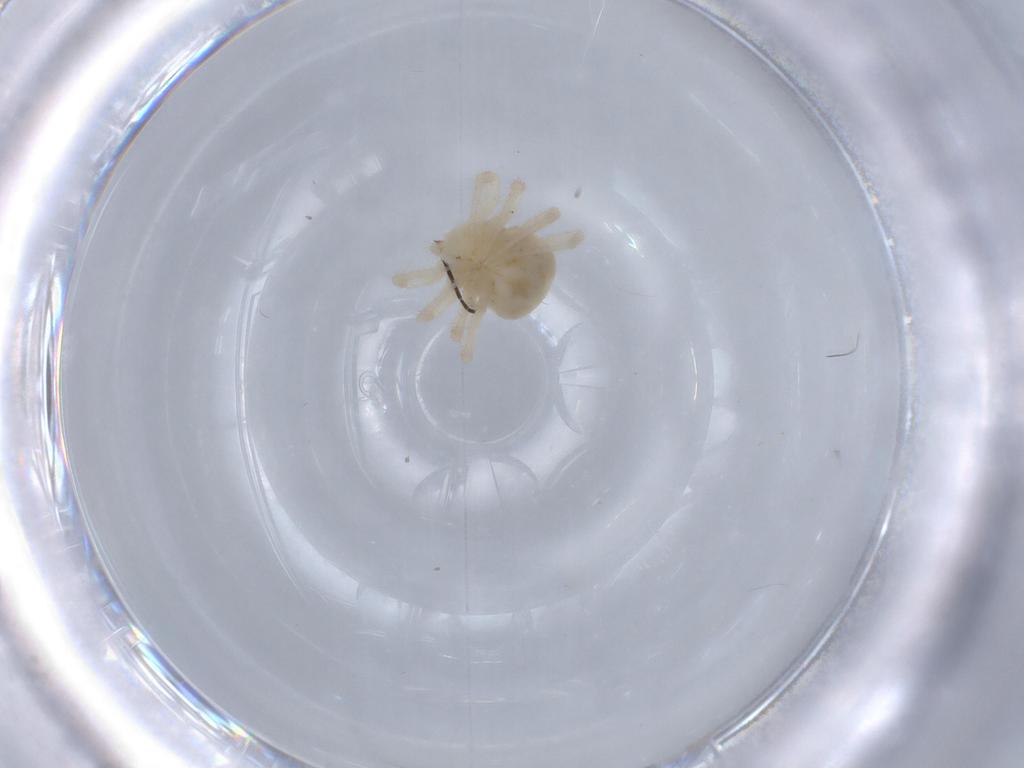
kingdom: Animalia
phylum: Arthropoda
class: Arachnida
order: Trombidiformes
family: Anystidae
